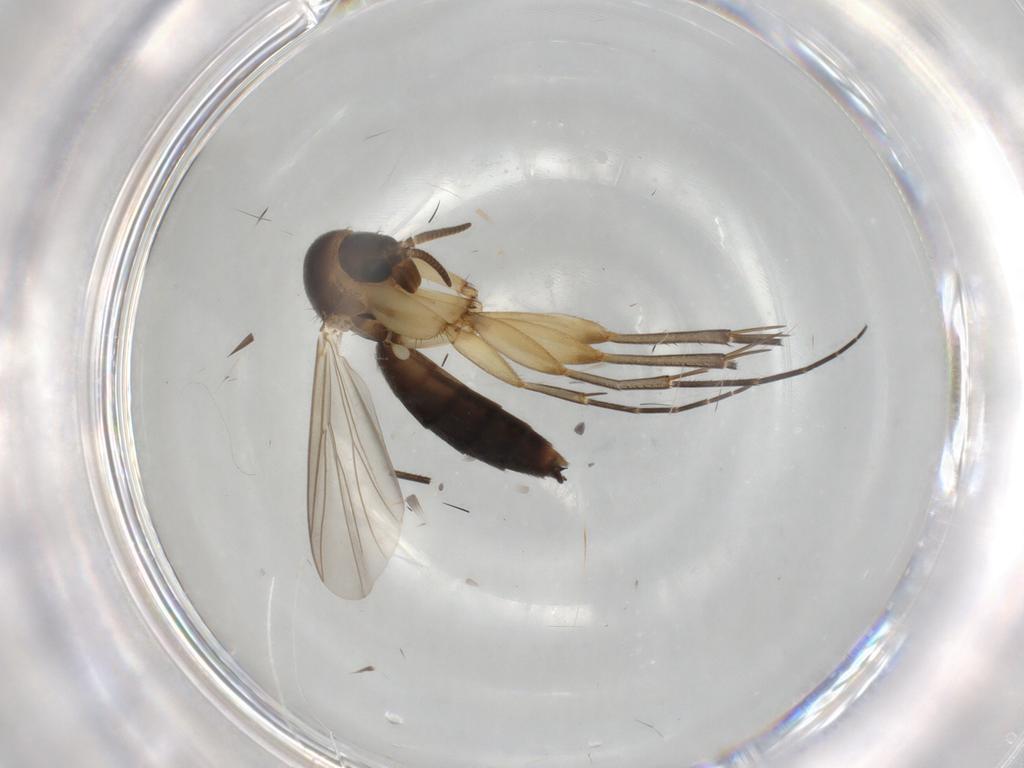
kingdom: Animalia
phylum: Arthropoda
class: Insecta
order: Diptera
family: Mycetophilidae
